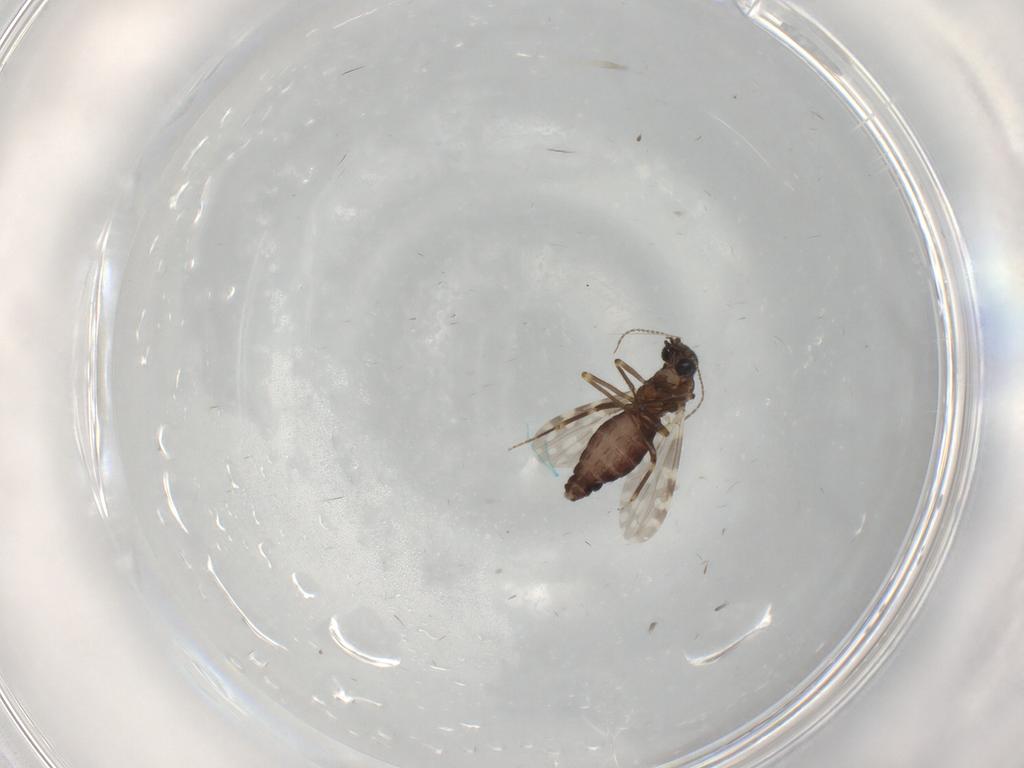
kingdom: Animalia
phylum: Arthropoda
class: Insecta
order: Diptera
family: Ceratopogonidae
